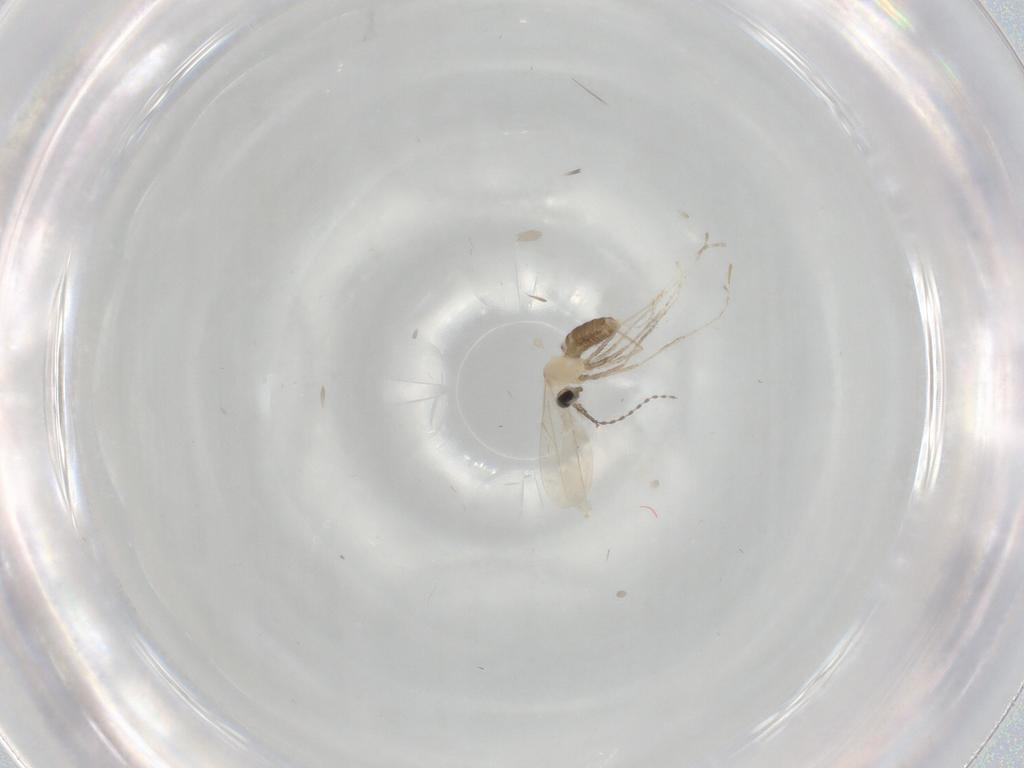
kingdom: Animalia
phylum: Arthropoda
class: Insecta
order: Diptera
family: Cecidomyiidae
